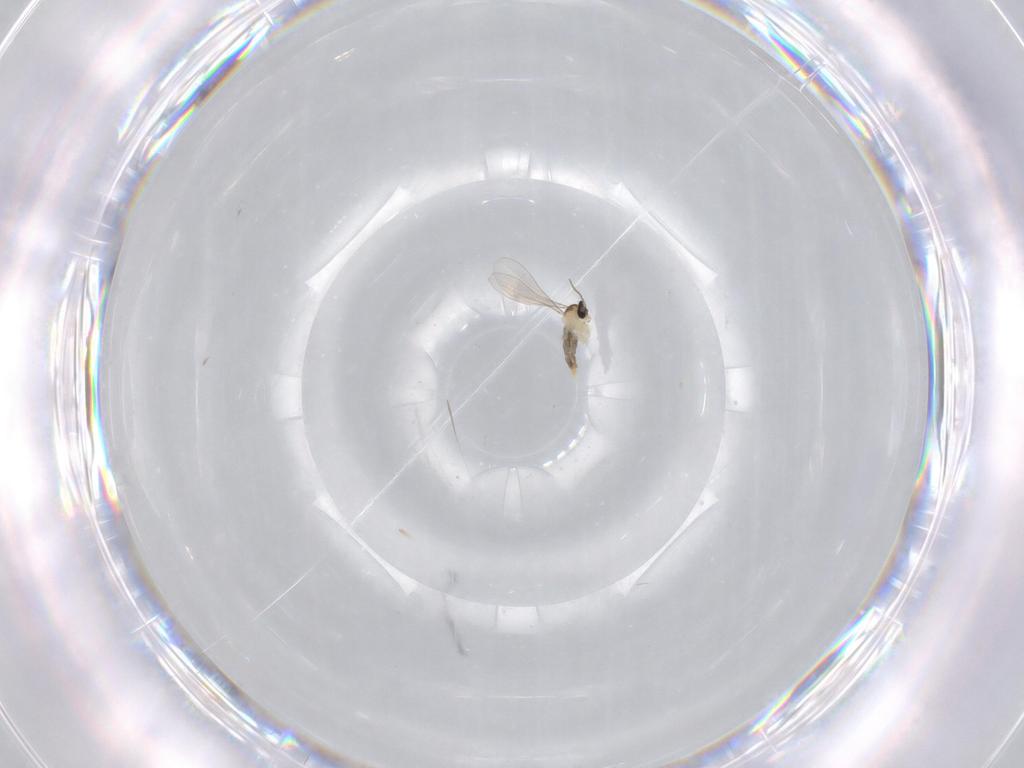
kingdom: Animalia
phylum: Arthropoda
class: Insecta
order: Diptera
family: Cecidomyiidae
